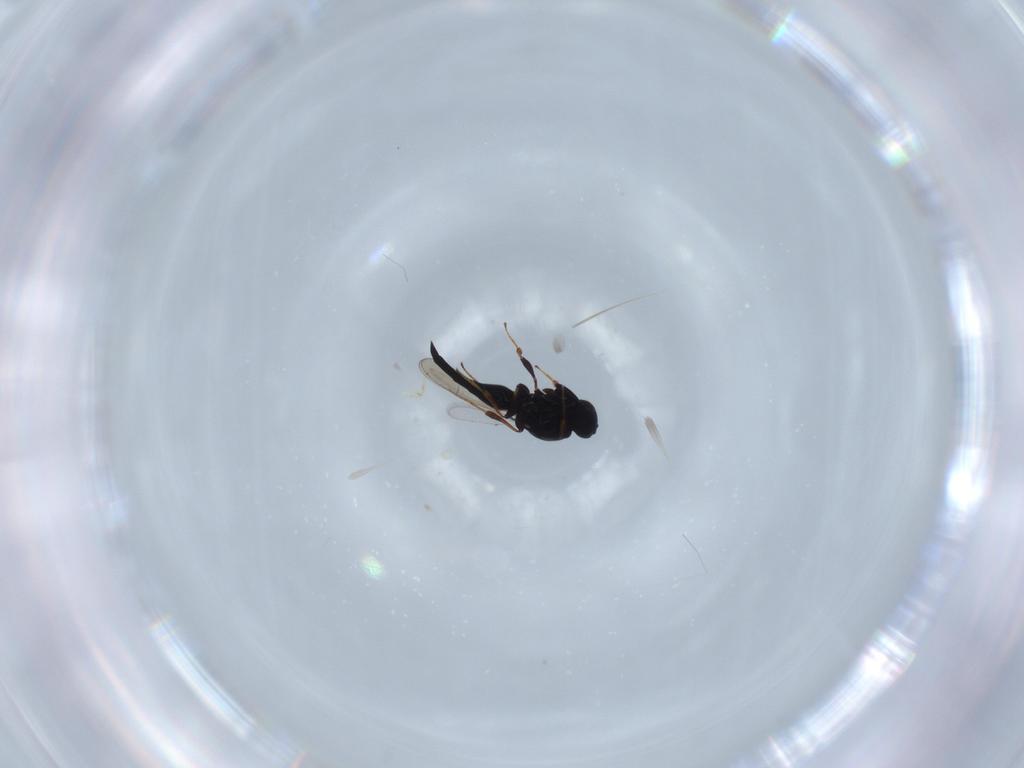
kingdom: Animalia
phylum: Arthropoda
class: Insecta
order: Hymenoptera
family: Platygastridae
